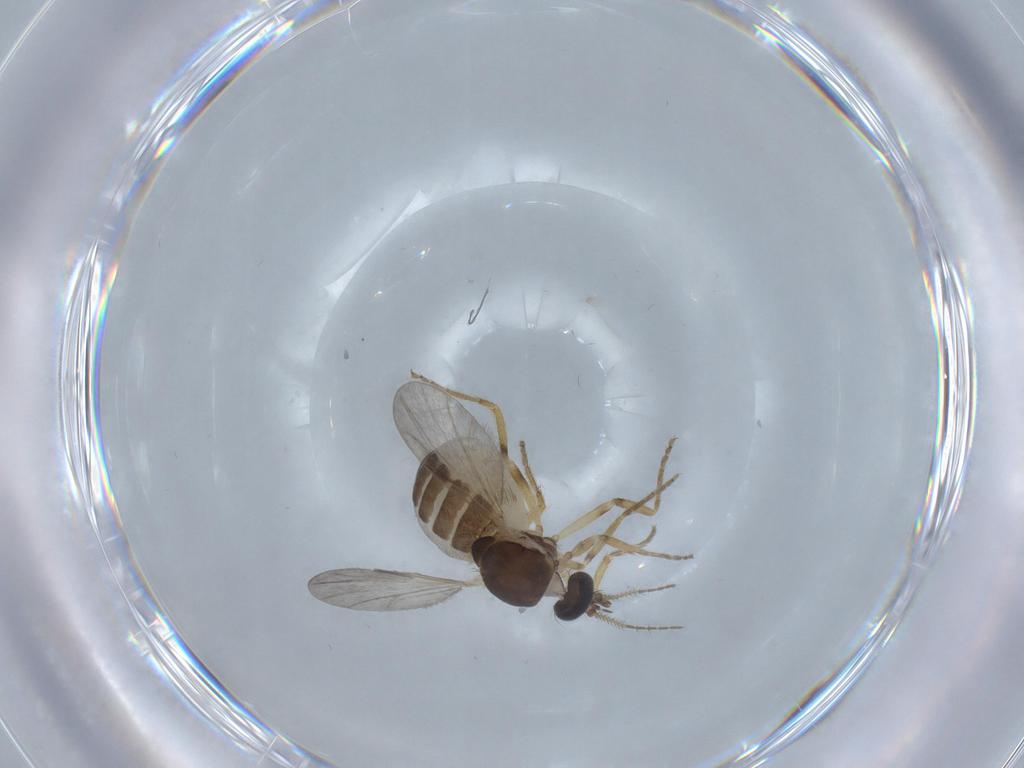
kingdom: Animalia
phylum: Arthropoda
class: Insecta
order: Diptera
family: Ceratopogonidae
